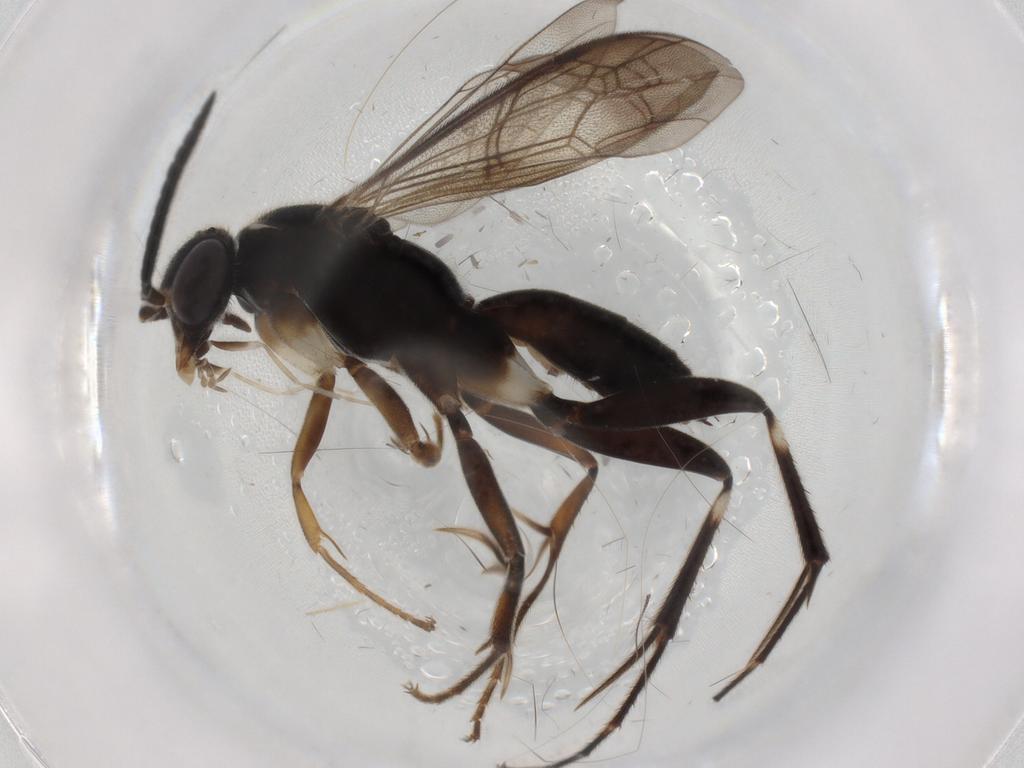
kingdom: Animalia
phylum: Arthropoda
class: Insecta
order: Hymenoptera
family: Pompilidae
